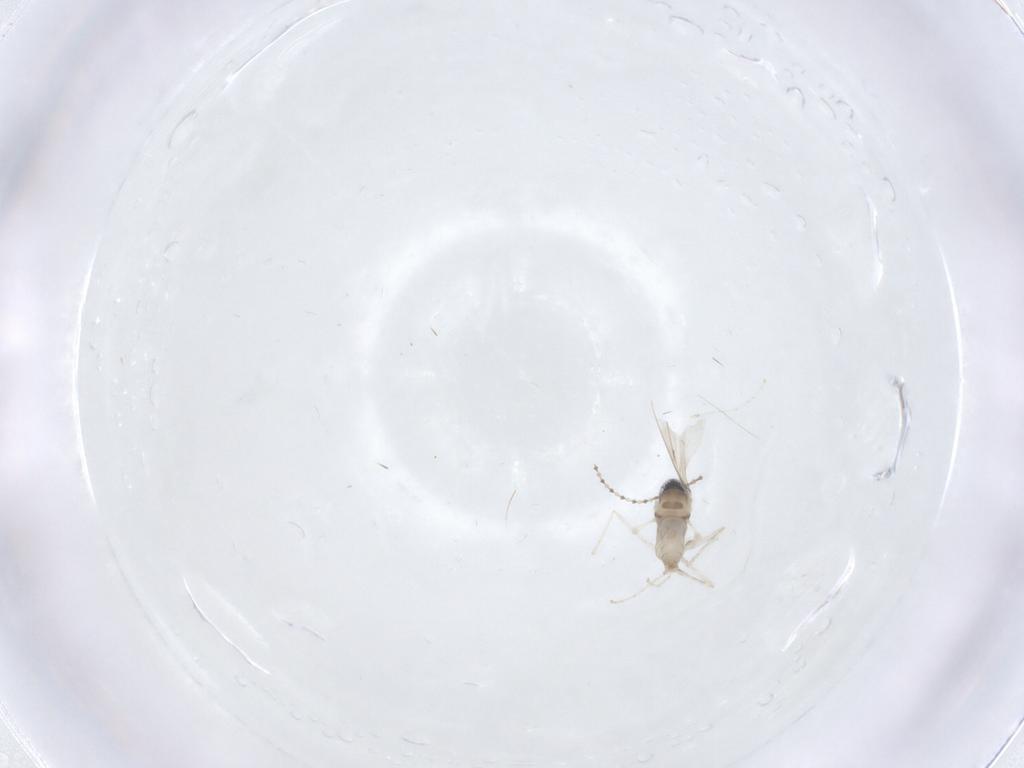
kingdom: Animalia
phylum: Arthropoda
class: Insecta
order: Diptera
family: Cecidomyiidae
